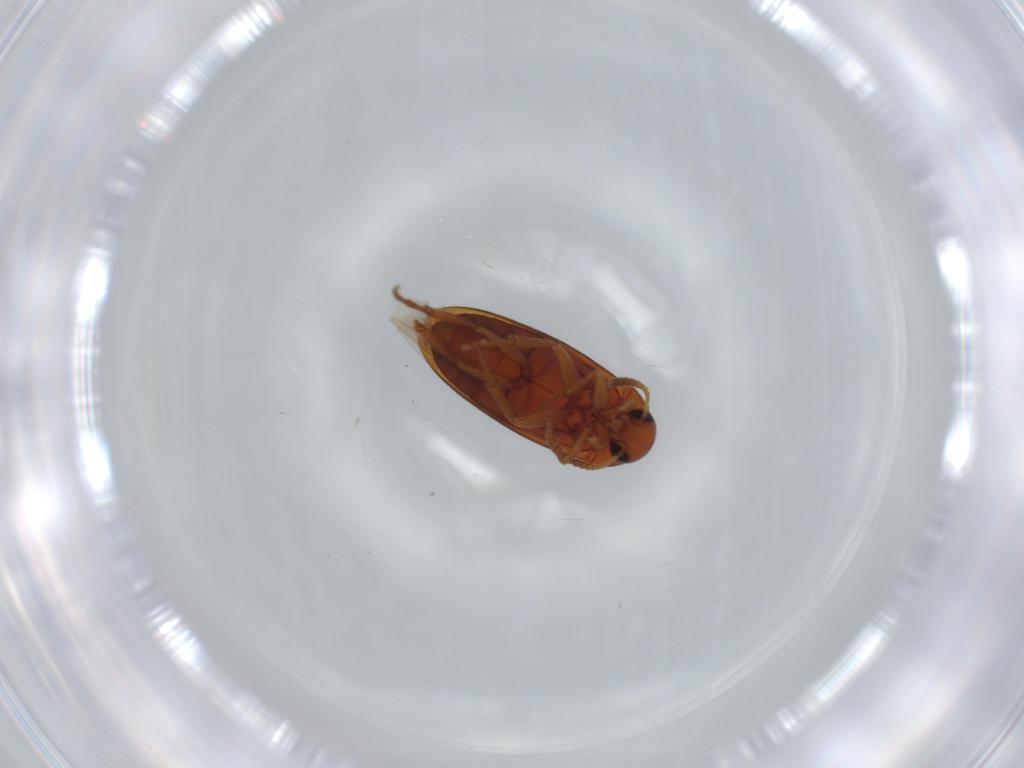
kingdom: Animalia
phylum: Arthropoda
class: Insecta
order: Coleoptera
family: Scraptiidae
